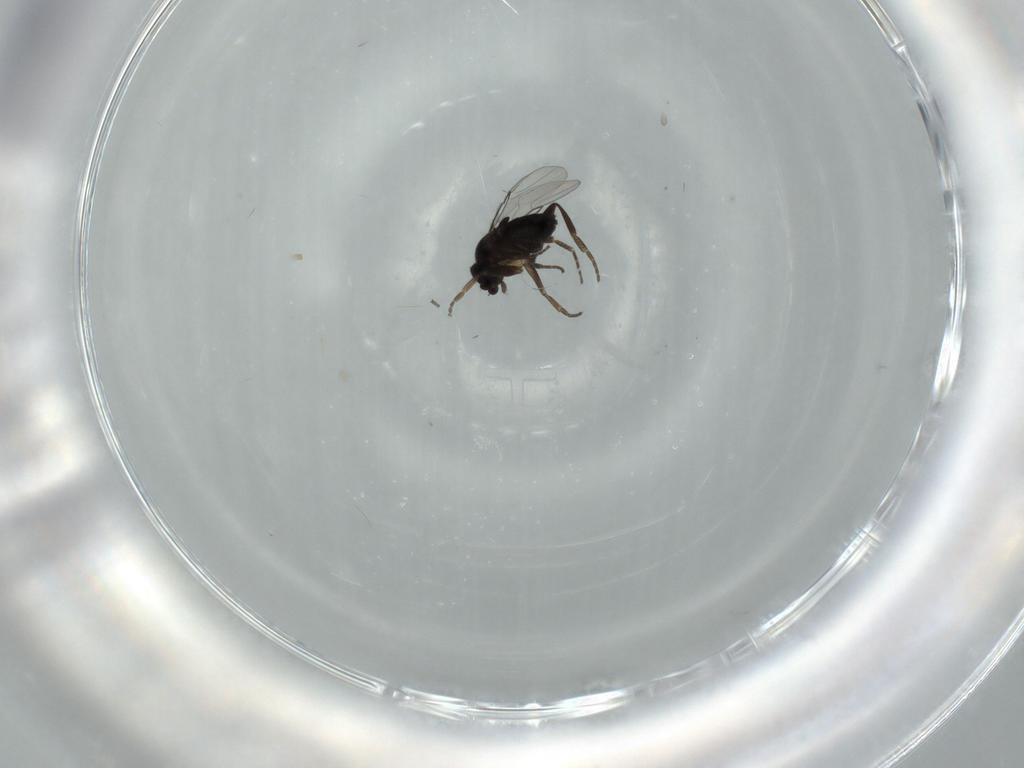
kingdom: Animalia
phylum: Arthropoda
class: Insecta
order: Diptera
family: Phoridae
